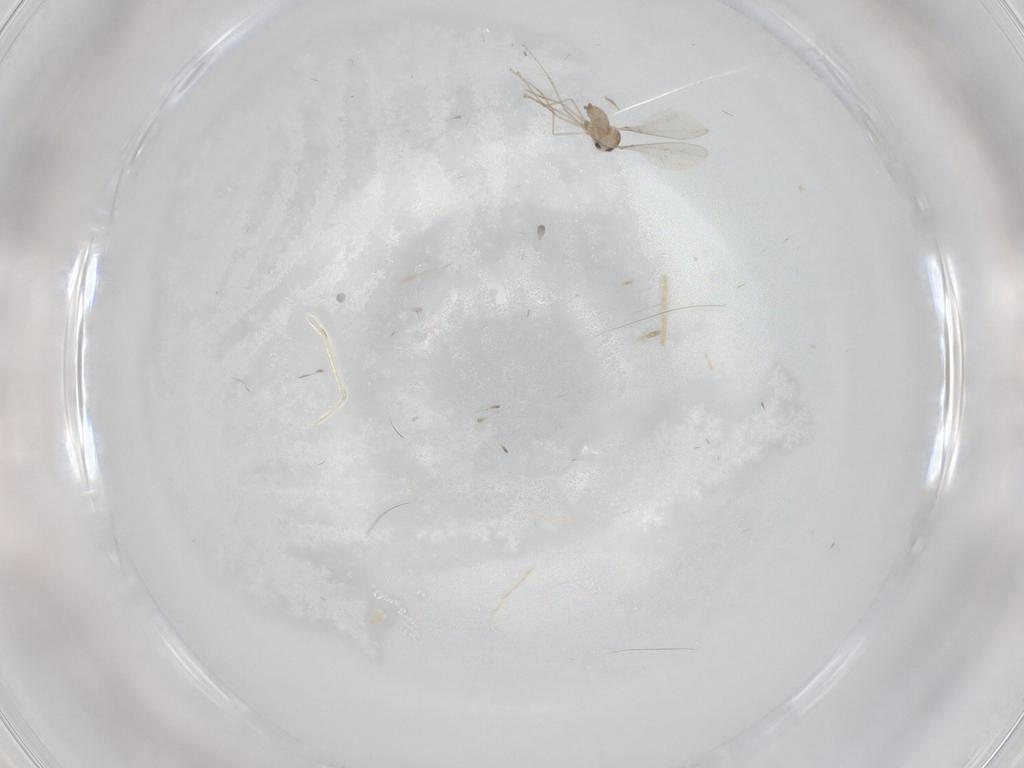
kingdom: Animalia
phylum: Arthropoda
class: Insecta
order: Diptera
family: Cecidomyiidae
